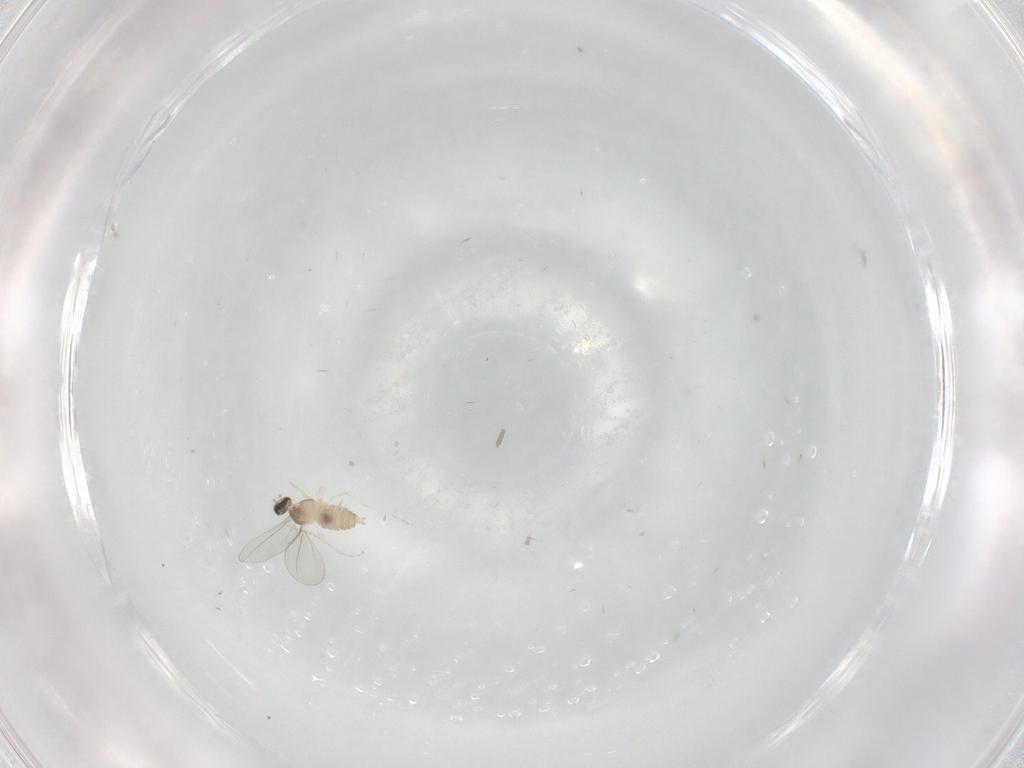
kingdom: Animalia
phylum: Arthropoda
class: Insecta
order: Diptera
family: Cecidomyiidae
